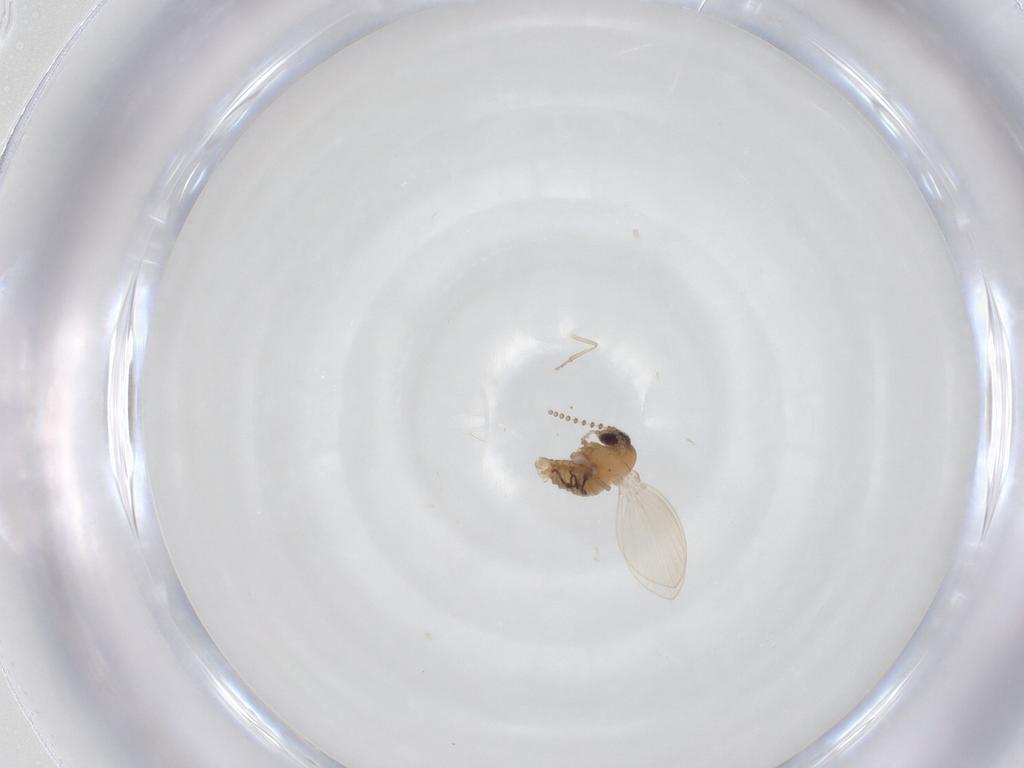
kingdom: Animalia
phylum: Arthropoda
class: Insecta
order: Diptera
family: Psychodidae
